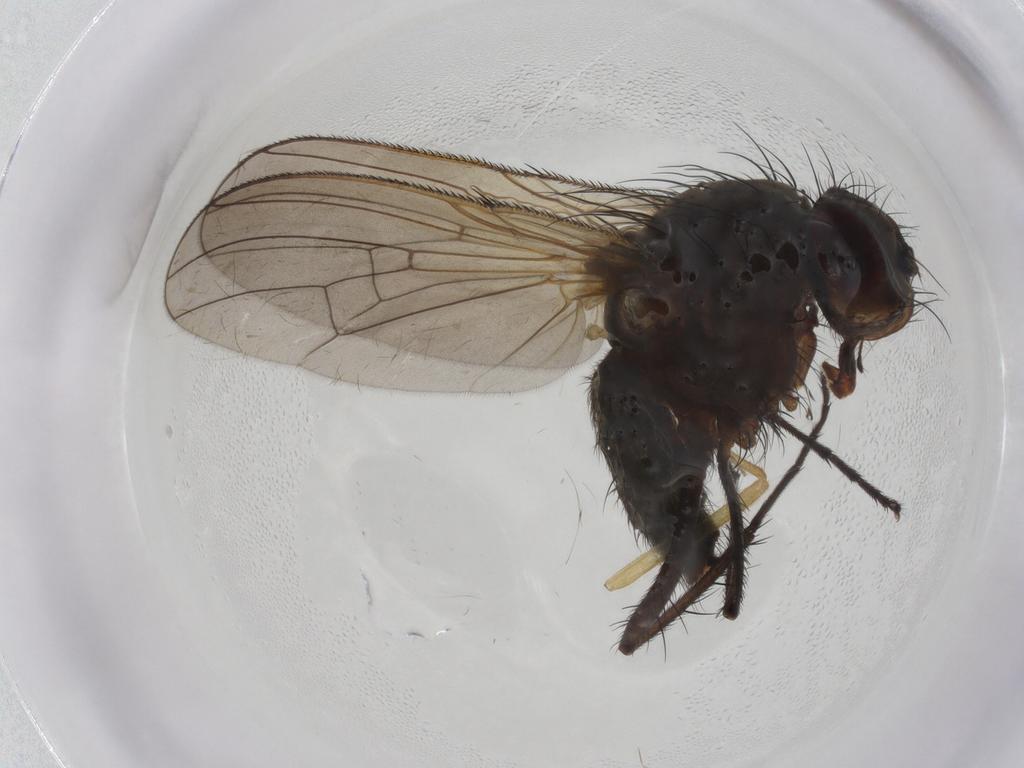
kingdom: Animalia
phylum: Arthropoda
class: Insecta
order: Diptera
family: Anthomyiidae
